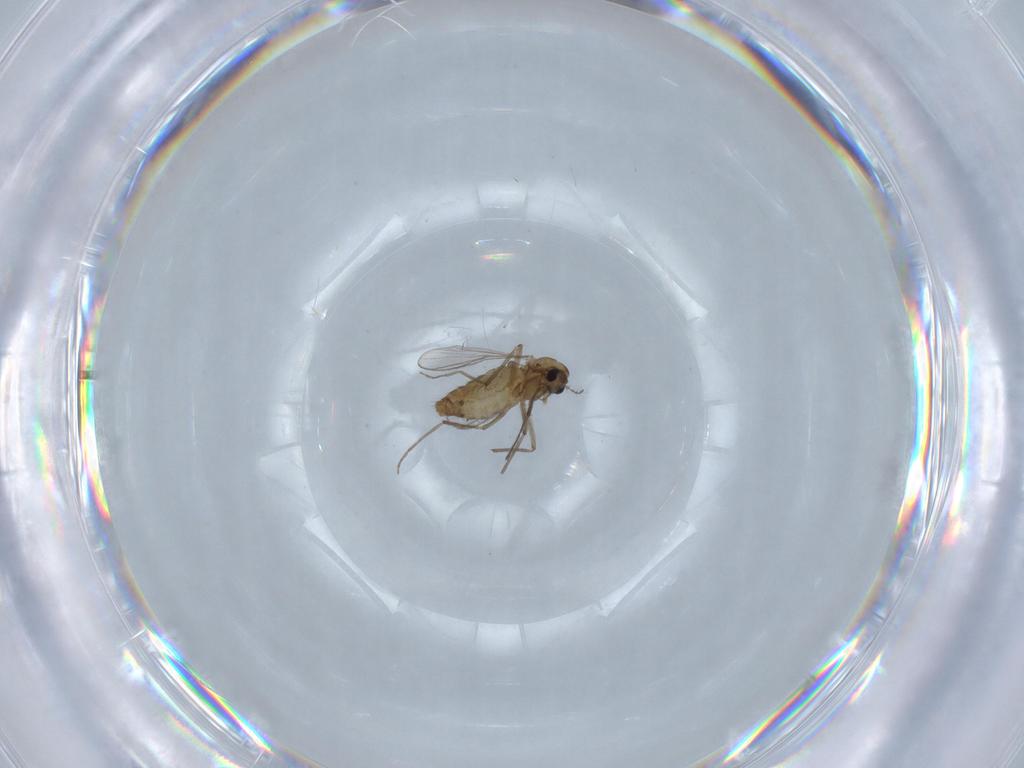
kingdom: Animalia
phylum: Arthropoda
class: Insecta
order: Diptera
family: Chironomidae
